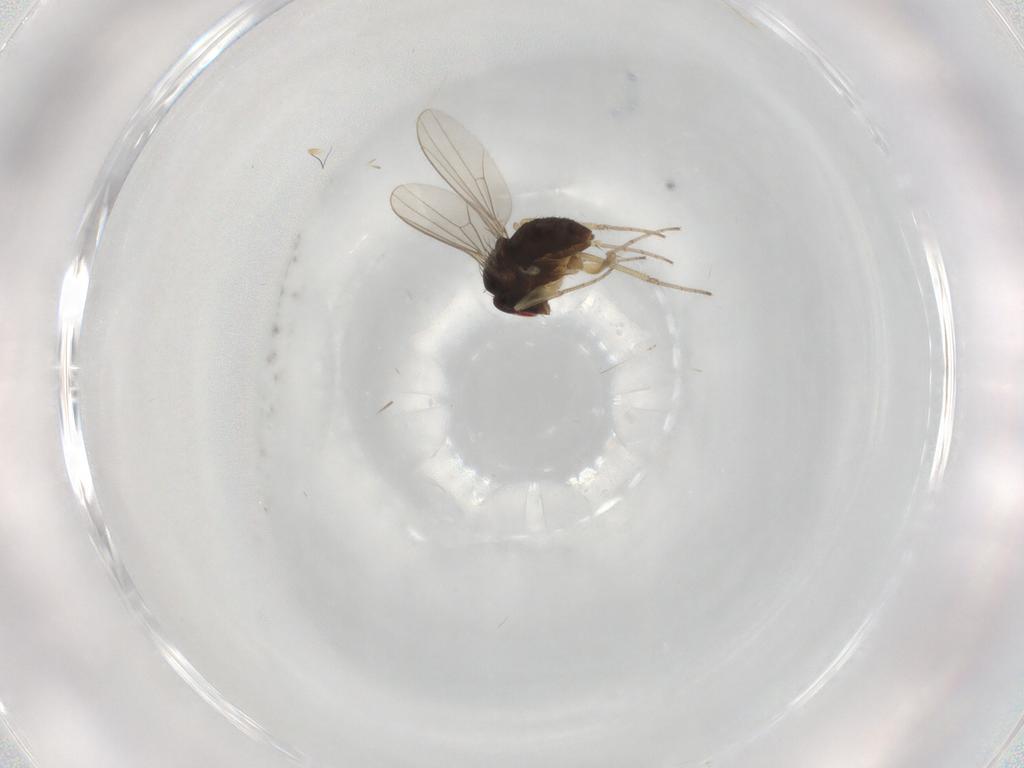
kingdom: Animalia
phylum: Arthropoda
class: Insecta
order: Diptera
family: Dolichopodidae
